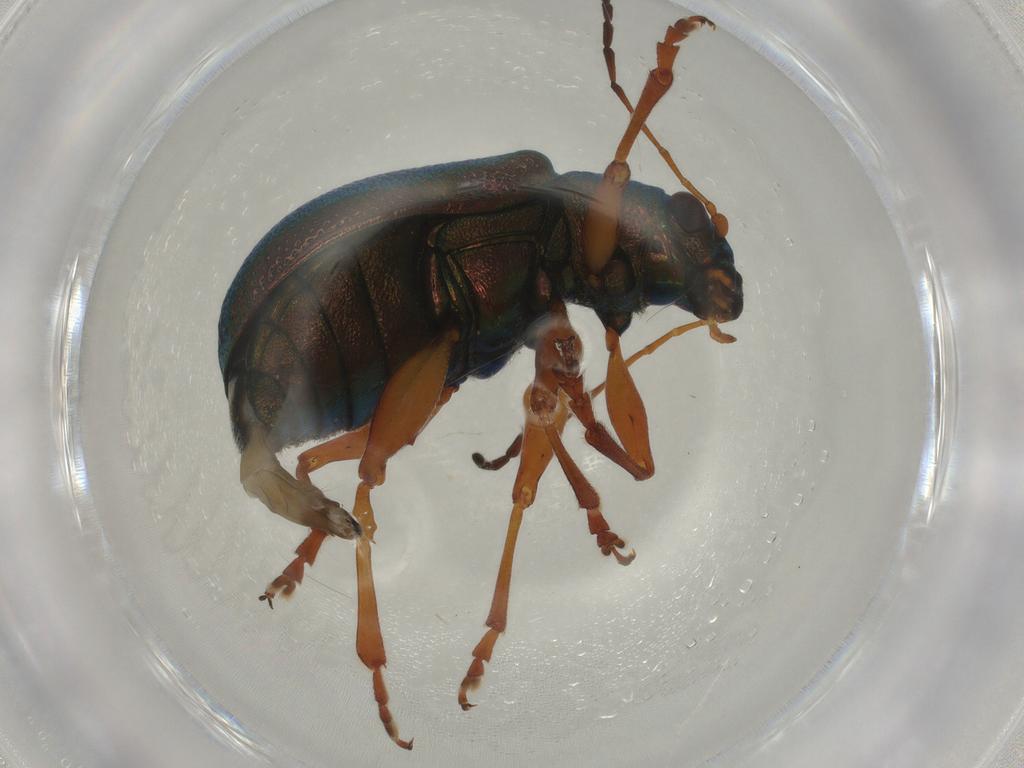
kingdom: Animalia
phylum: Arthropoda
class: Insecta
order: Coleoptera
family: Chrysomelidae
